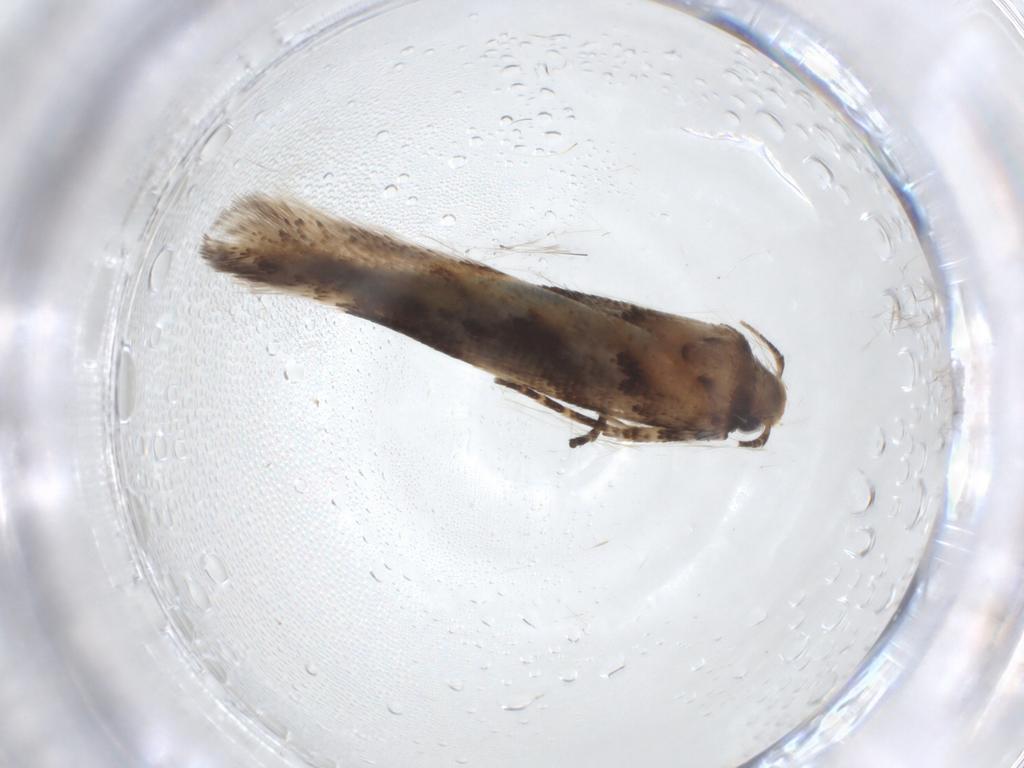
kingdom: Animalia
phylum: Arthropoda
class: Insecta
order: Lepidoptera
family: Gelechiidae
